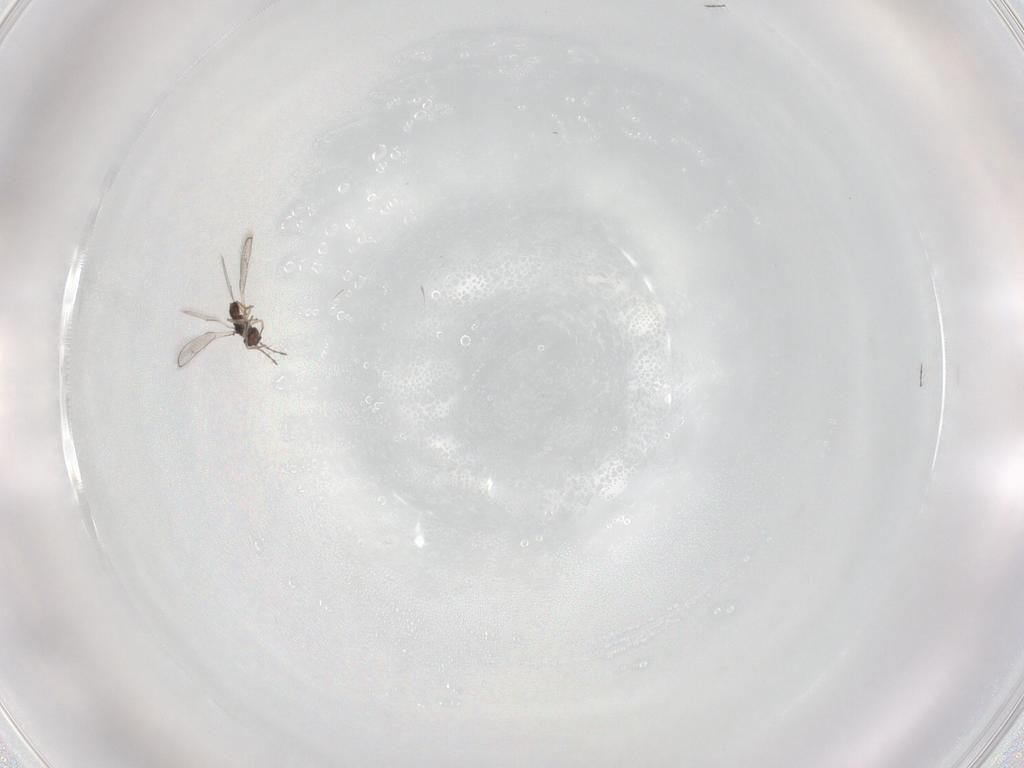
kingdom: Animalia
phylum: Arthropoda
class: Insecta
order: Hymenoptera
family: Pteromalidae
